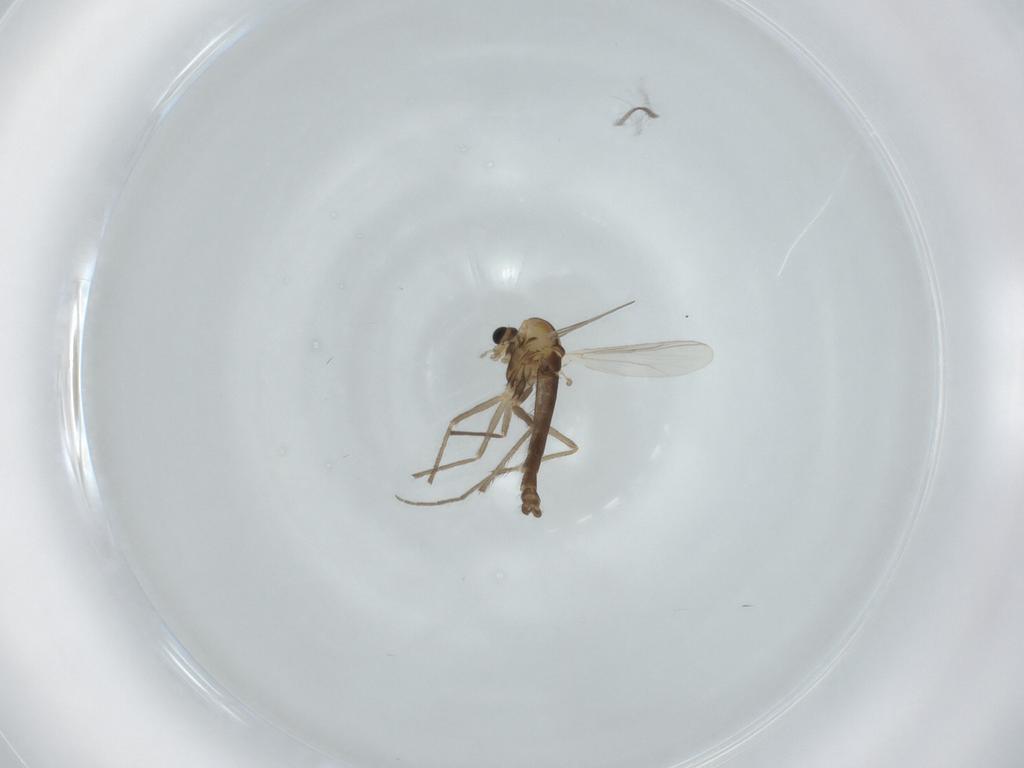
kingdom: Animalia
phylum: Arthropoda
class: Insecta
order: Diptera
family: Chironomidae
